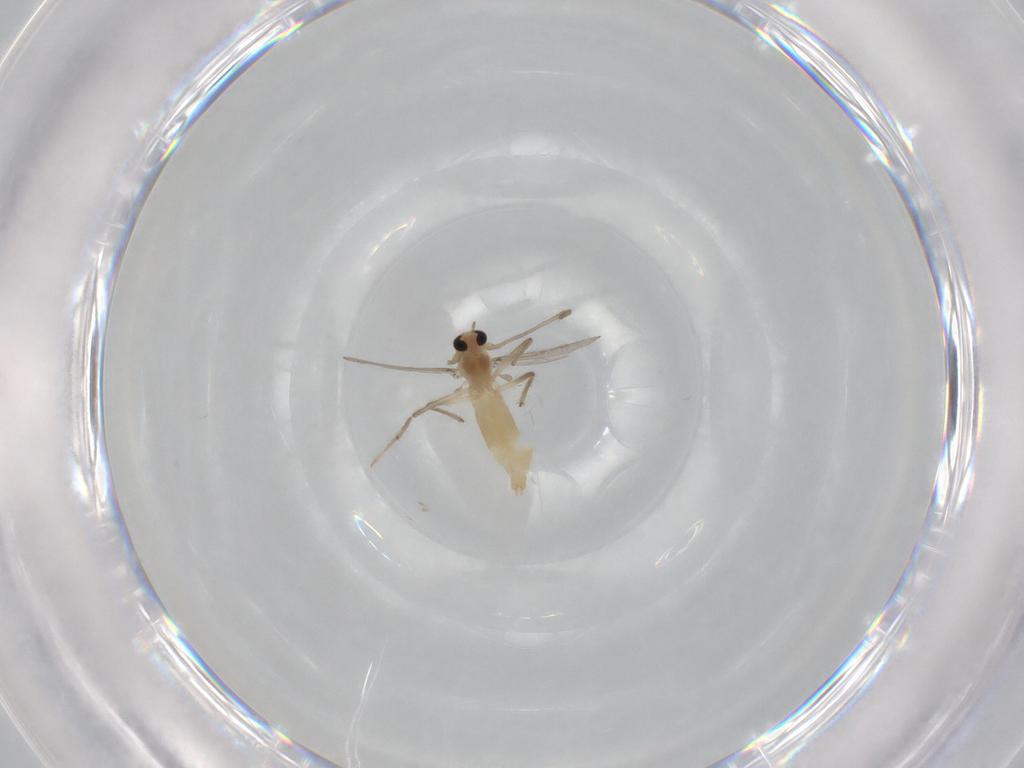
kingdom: Animalia
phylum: Arthropoda
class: Insecta
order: Diptera
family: Chironomidae
